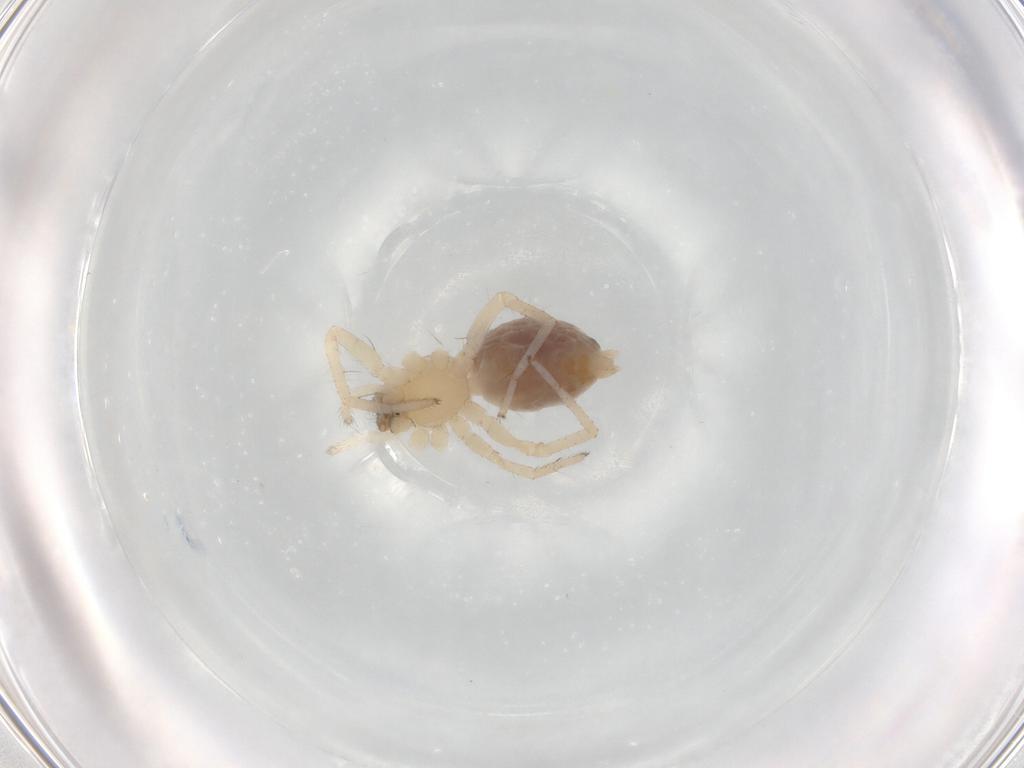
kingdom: Animalia
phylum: Arthropoda
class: Arachnida
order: Araneae
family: Anyphaenidae
